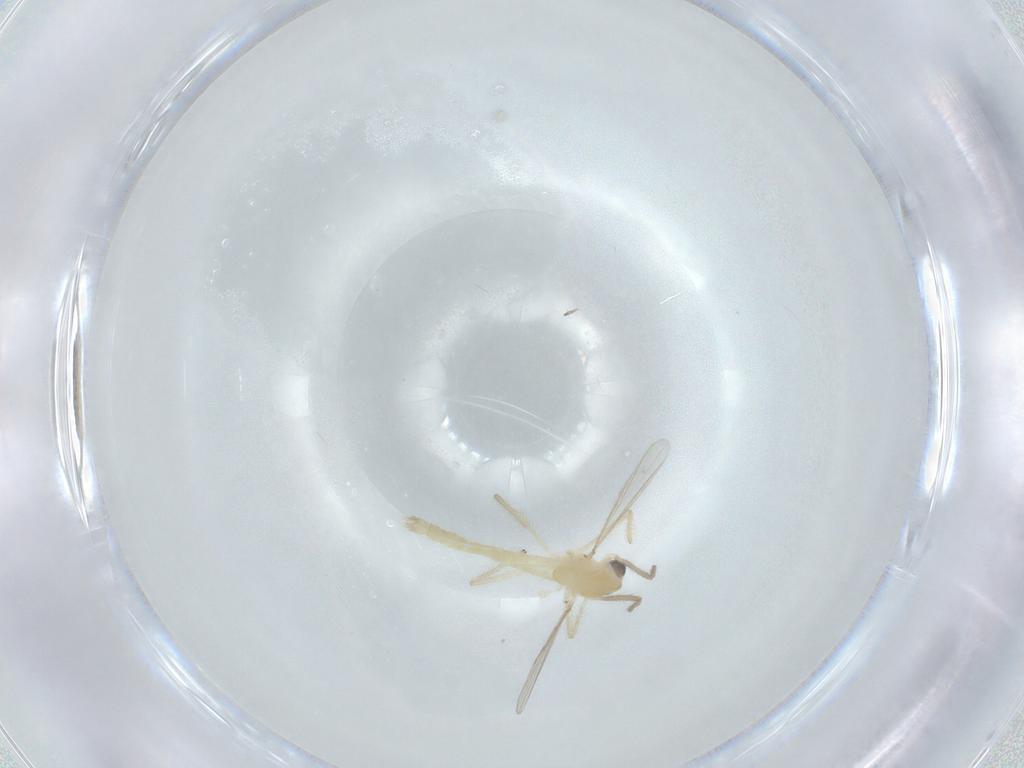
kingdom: Animalia
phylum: Arthropoda
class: Insecta
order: Diptera
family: Chironomidae
